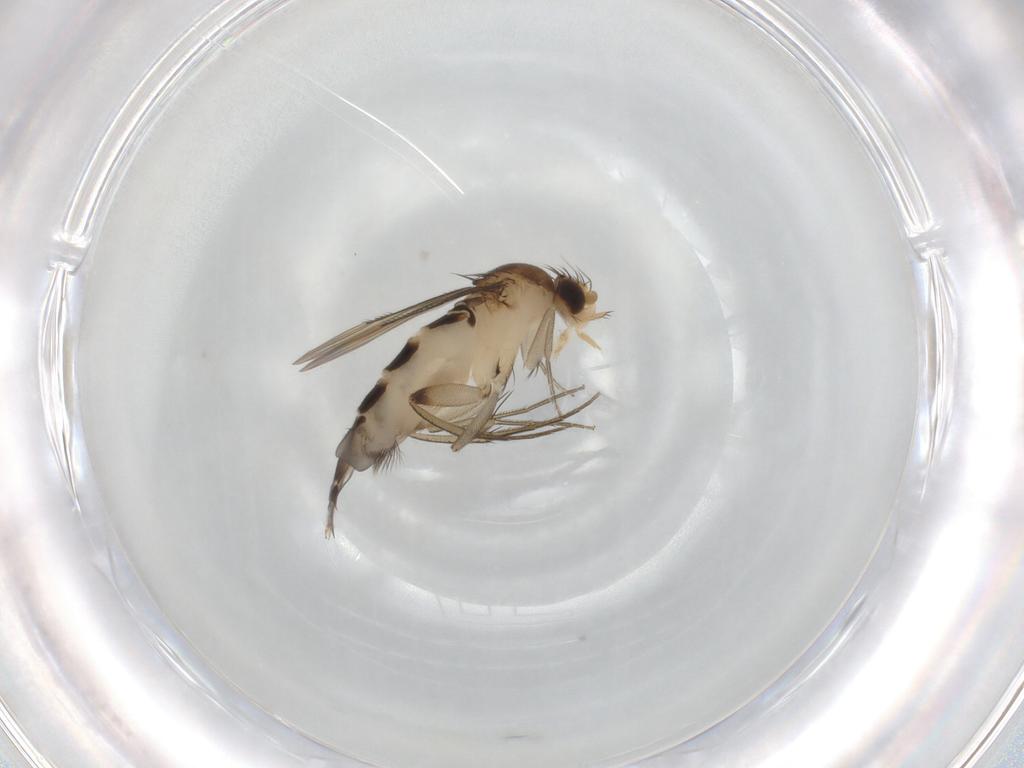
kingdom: Animalia
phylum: Arthropoda
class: Insecta
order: Diptera
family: Phoridae
